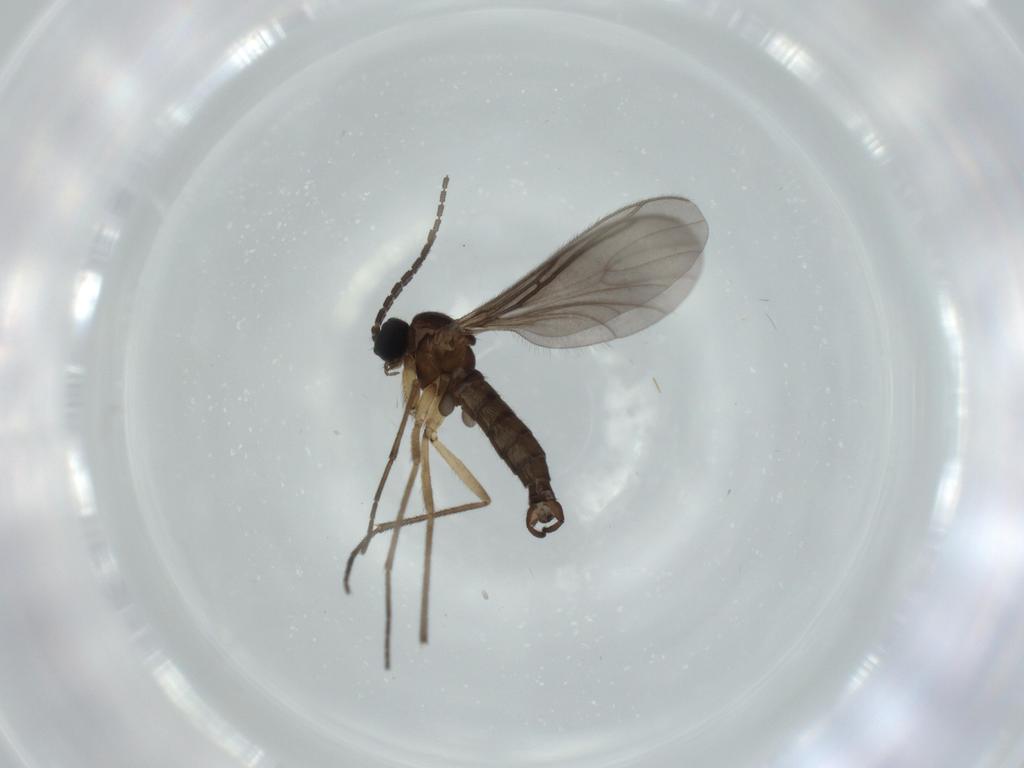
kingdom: Animalia
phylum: Arthropoda
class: Insecta
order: Diptera
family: Sciaridae
